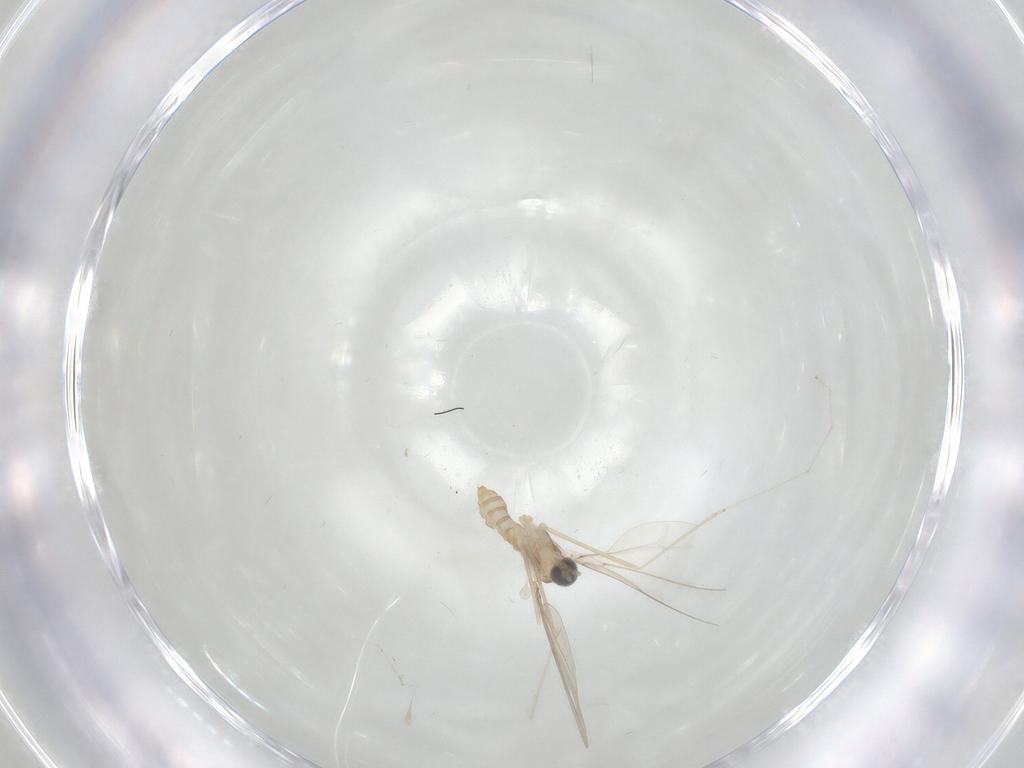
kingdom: Animalia
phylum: Arthropoda
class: Insecta
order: Diptera
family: Cecidomyiidae
